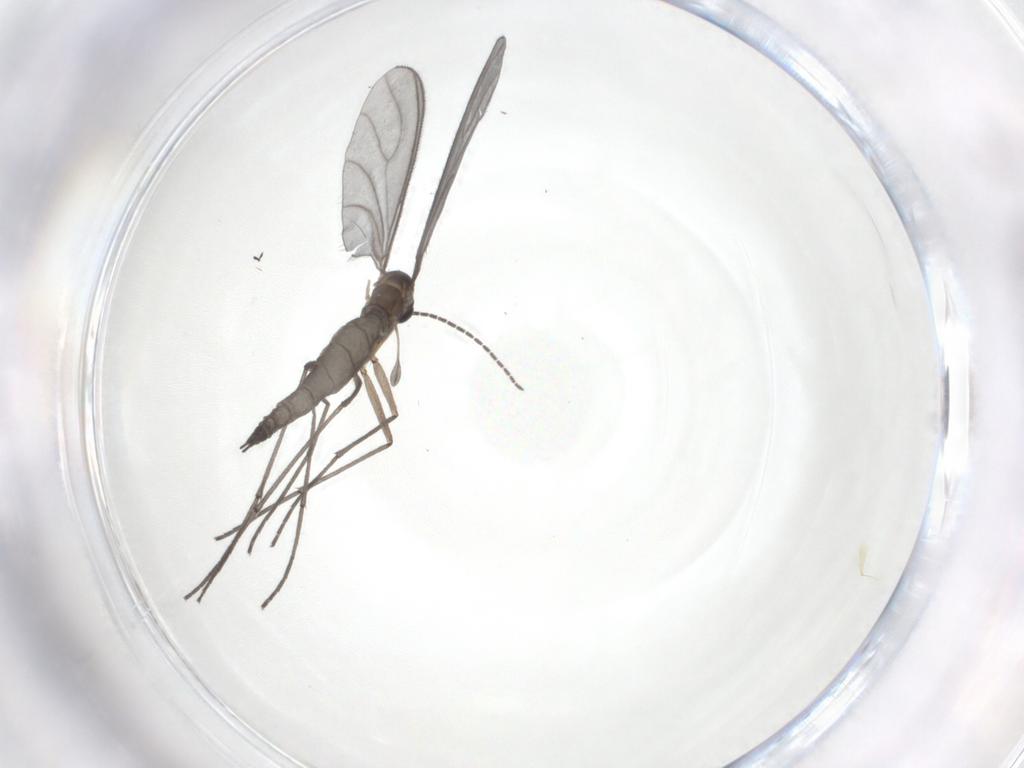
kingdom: Animalia
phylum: Arthropoda
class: Insecta
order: Diptera
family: Sciaridae
